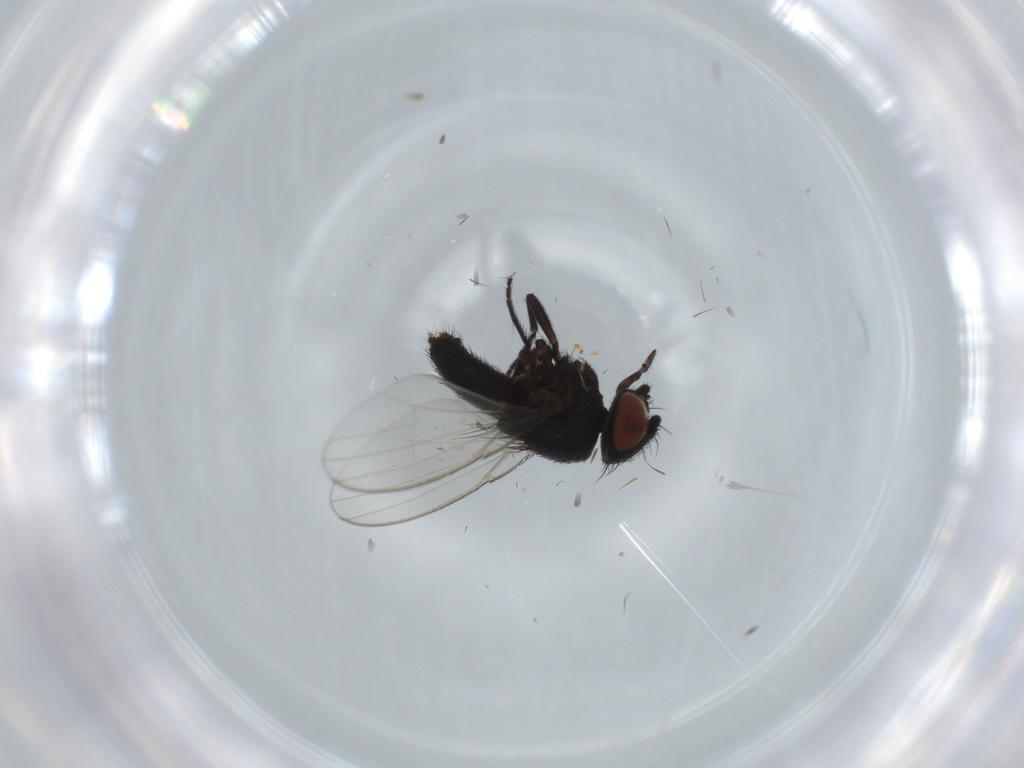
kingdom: Animalia
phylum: Arthropoda
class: Insecta
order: Diptera
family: Milichiidae
